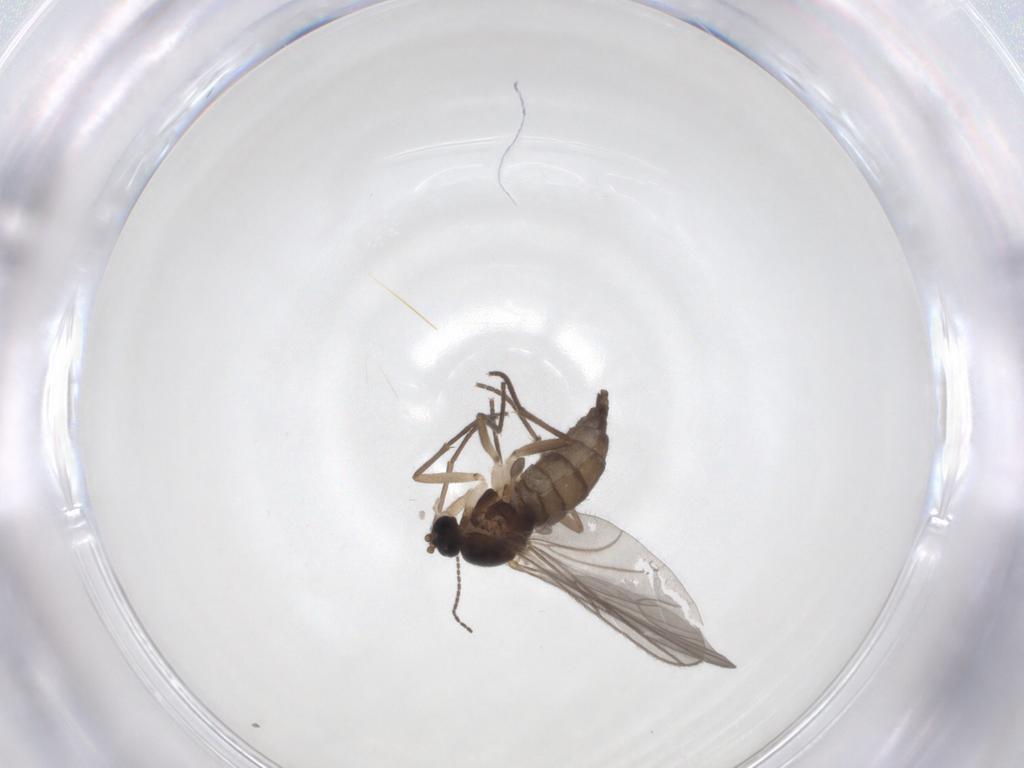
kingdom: Animalia
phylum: Arthropoda
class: Insecta
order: Diptera
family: Sciaridae
